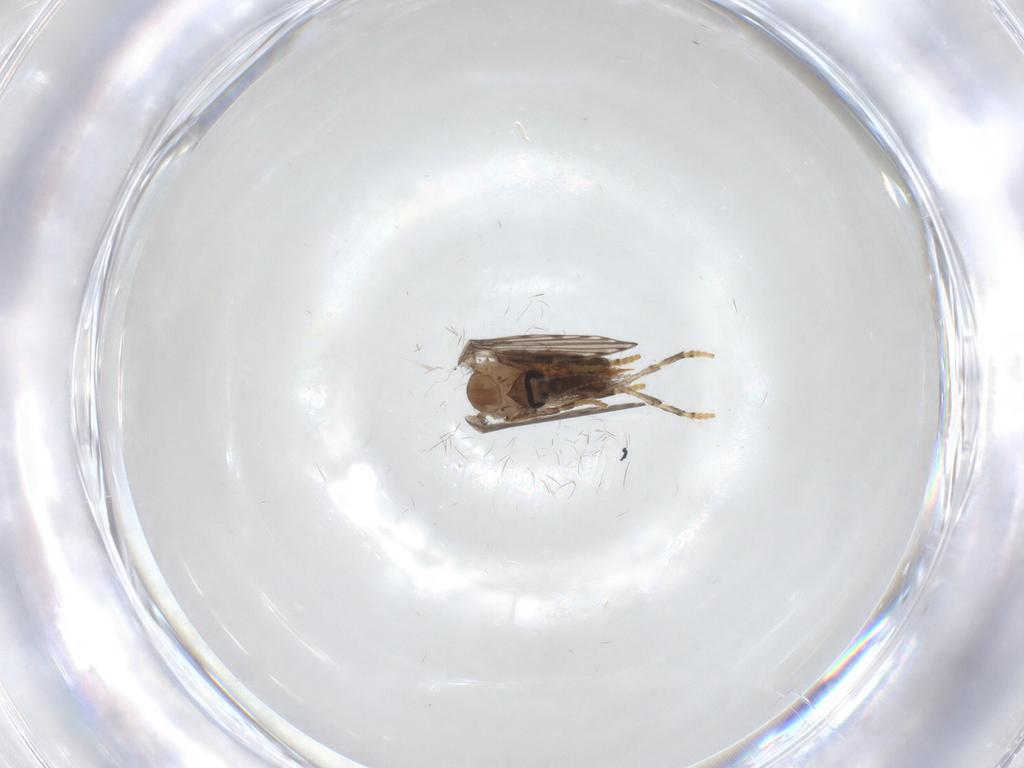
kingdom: Animalia
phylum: Arthropoda
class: Insecta
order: Diptera
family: Psychodidae
